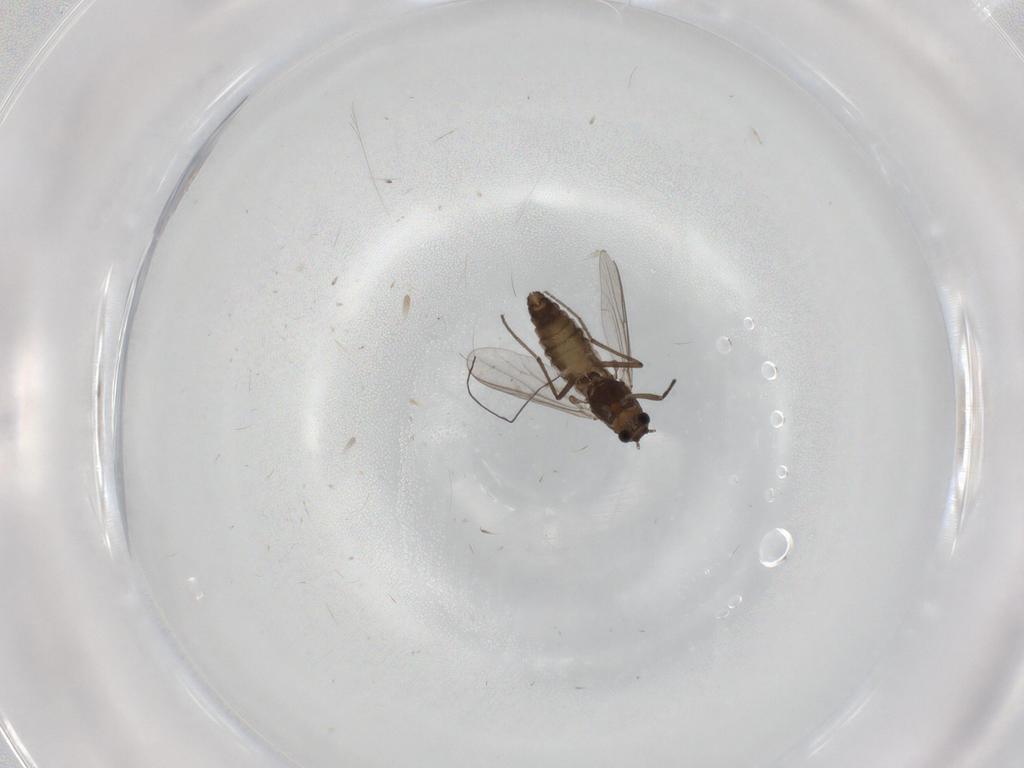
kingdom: Animalia
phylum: Arthropoda
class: Insecta
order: Diptera
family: Chironomidae
